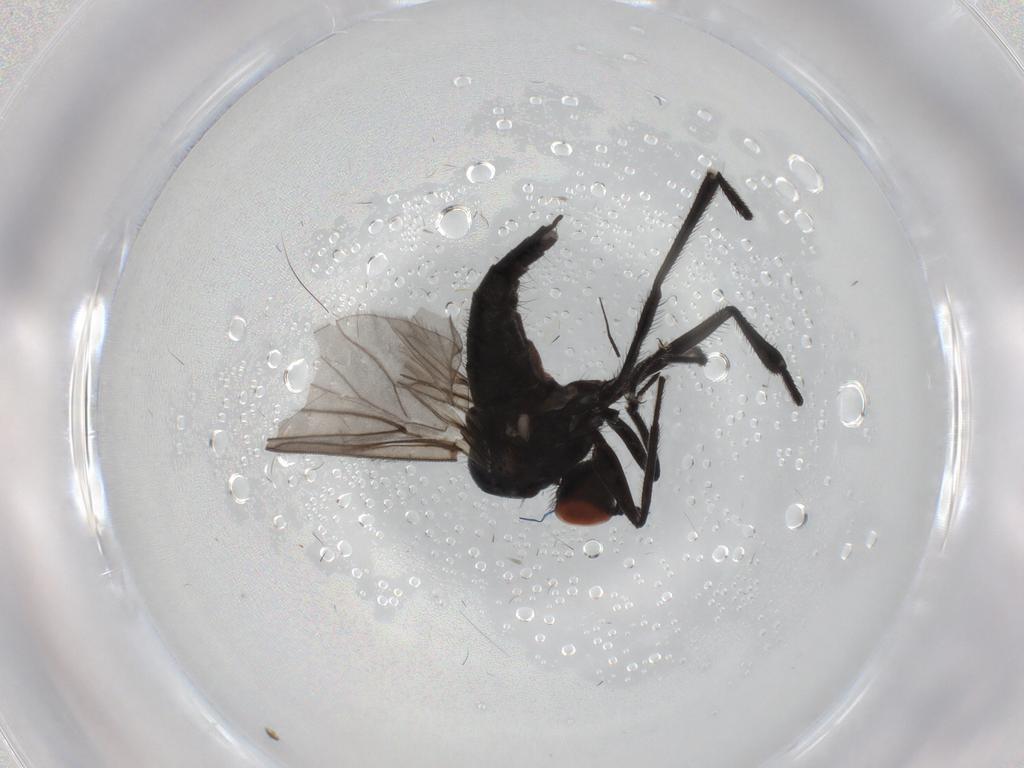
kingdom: Animalia
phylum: Arthropoda
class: Insecta
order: Diptera
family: Chironomidae
